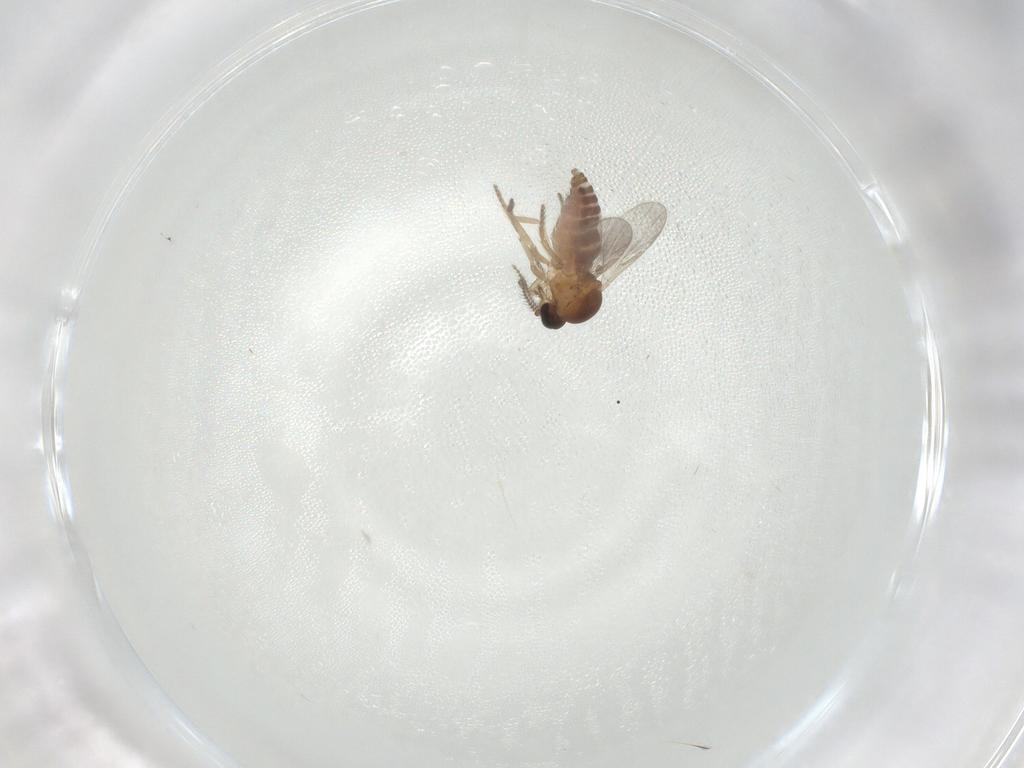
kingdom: Animalia
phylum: Arthropoda
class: Insecta
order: Diptera
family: Ceratopogonidae
